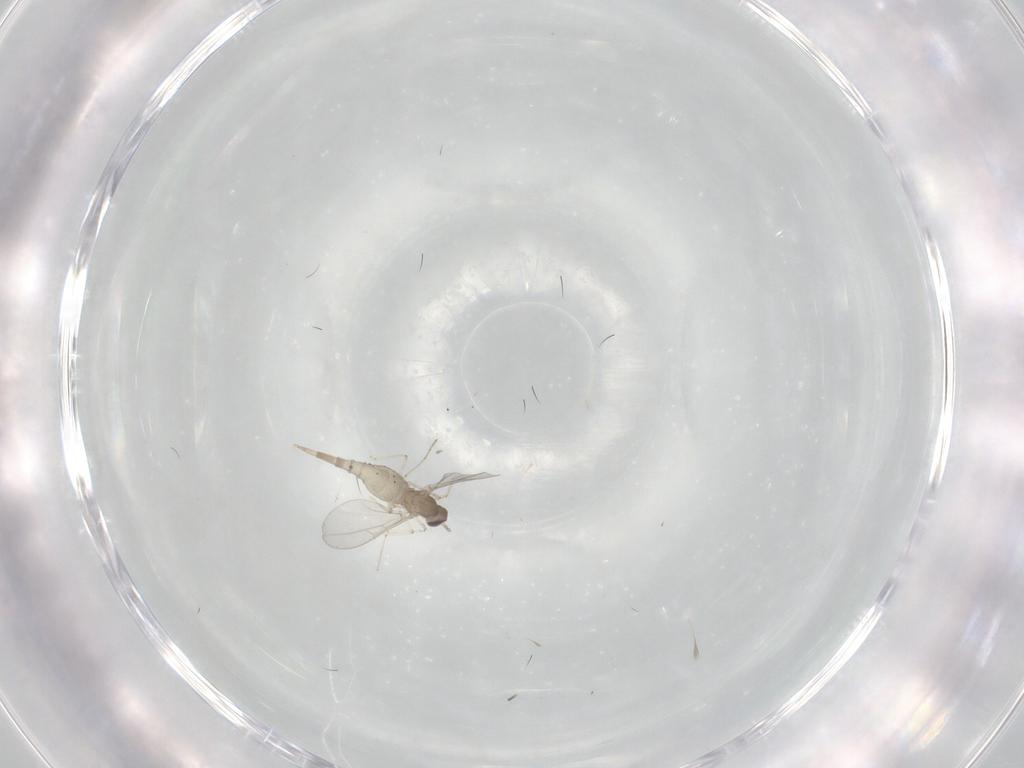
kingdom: Animalia
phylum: Arthropoda
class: Insecta
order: Diptera
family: Cecidomyiidae
